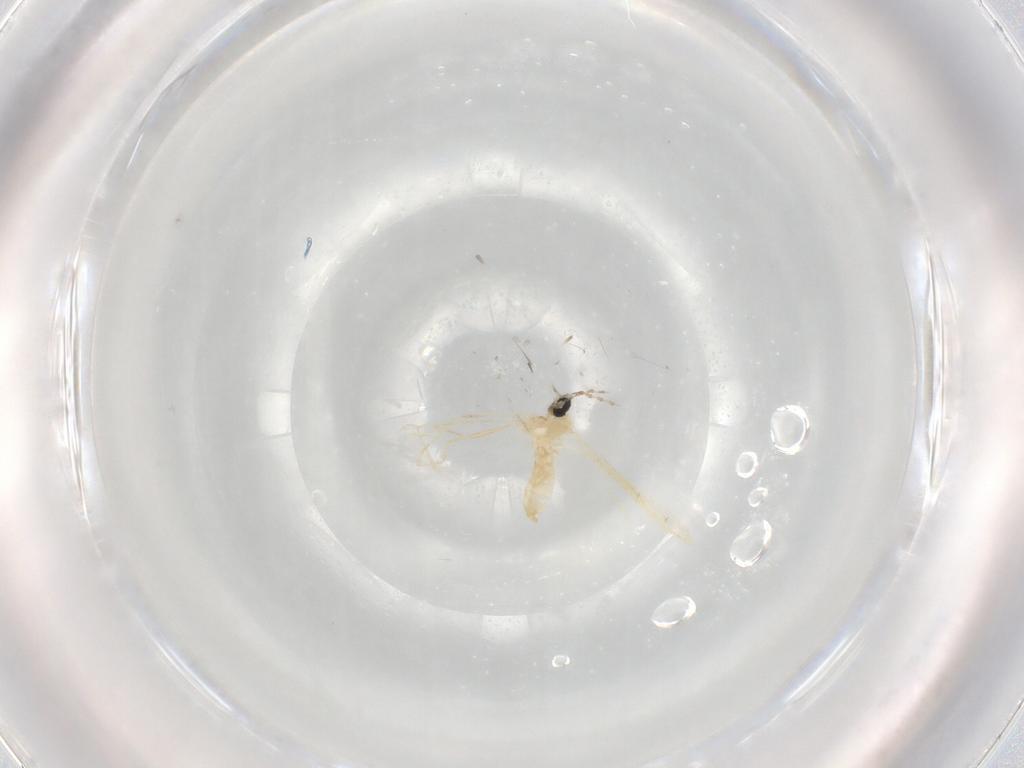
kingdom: Animalia
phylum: Arthropoda
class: Insecta
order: Diptera
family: Cecidomyiidae
